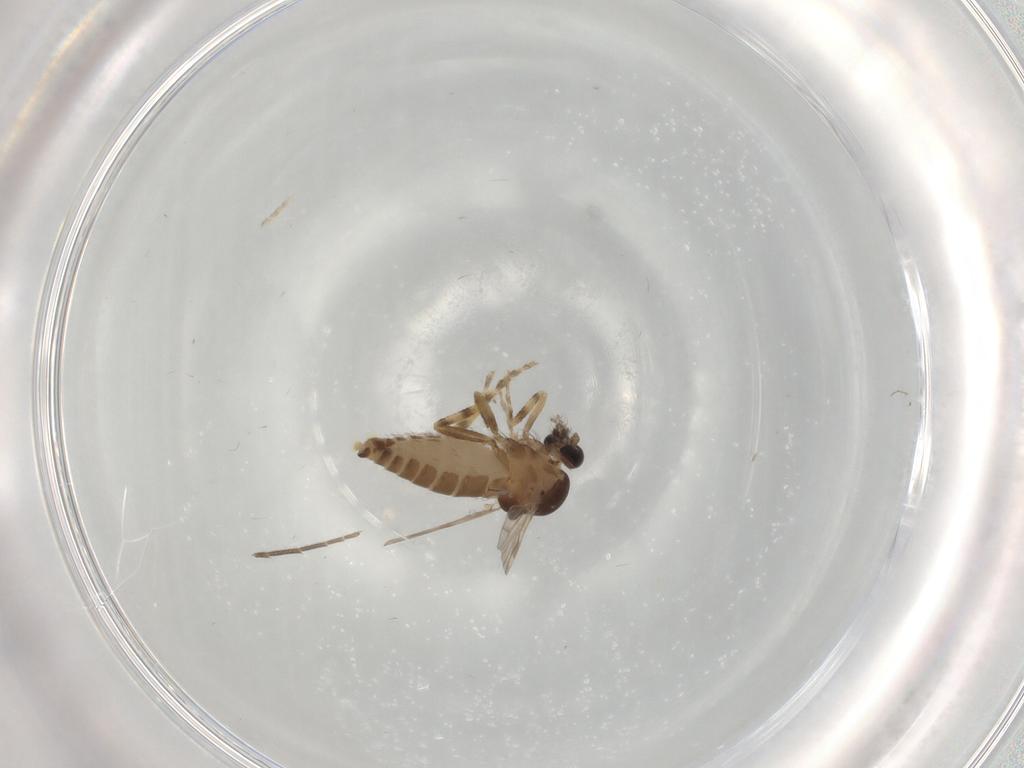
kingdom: Animalia
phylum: Arthropoda
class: Insecta
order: Diptera
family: Ceratopogonidae
